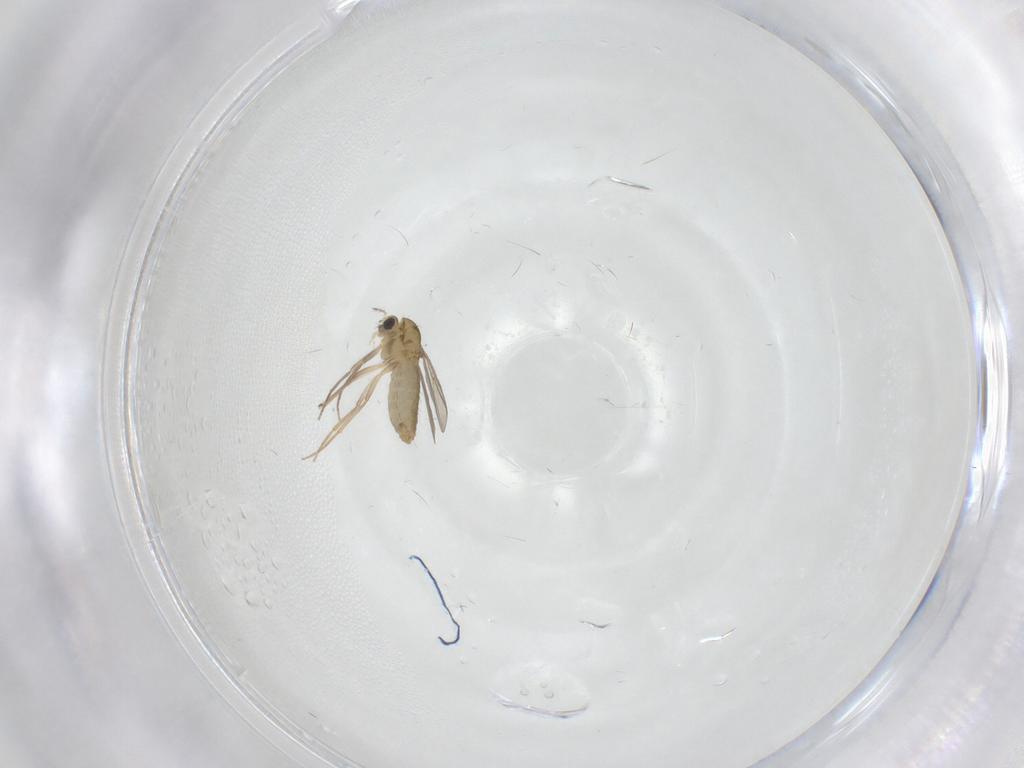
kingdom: Animalia
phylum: Arthropoda
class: Insecta
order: Diptera
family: Chironomidae
